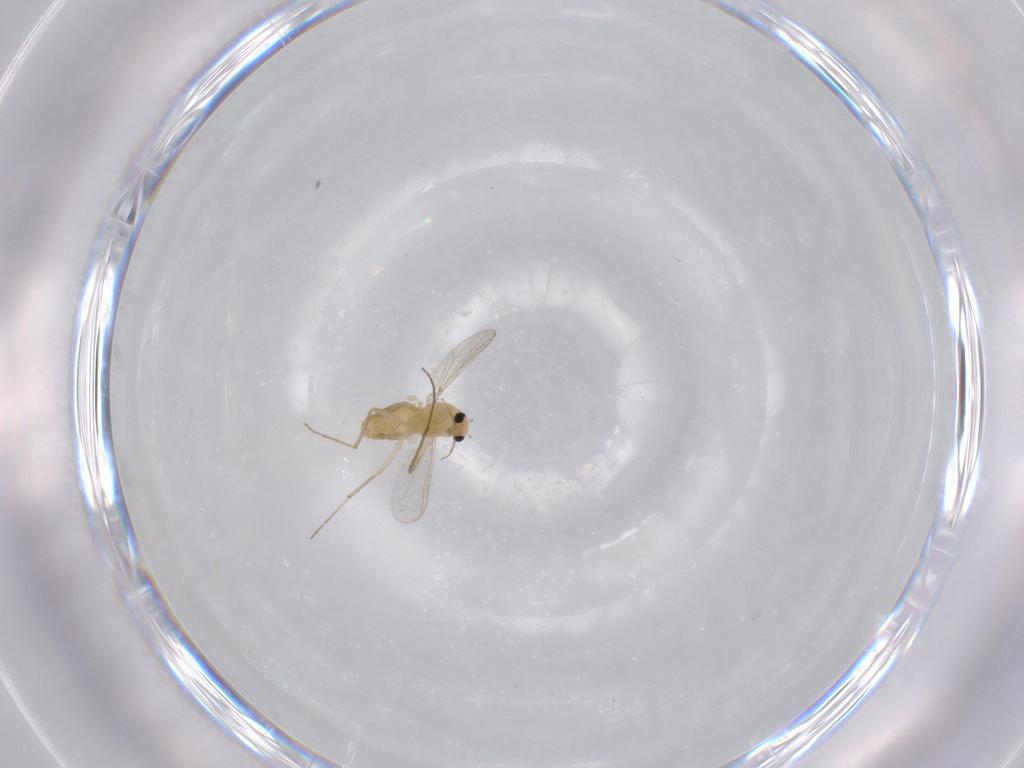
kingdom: Animalia
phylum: Arthropoda
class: Insecta
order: Diptera
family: Chironomidae
